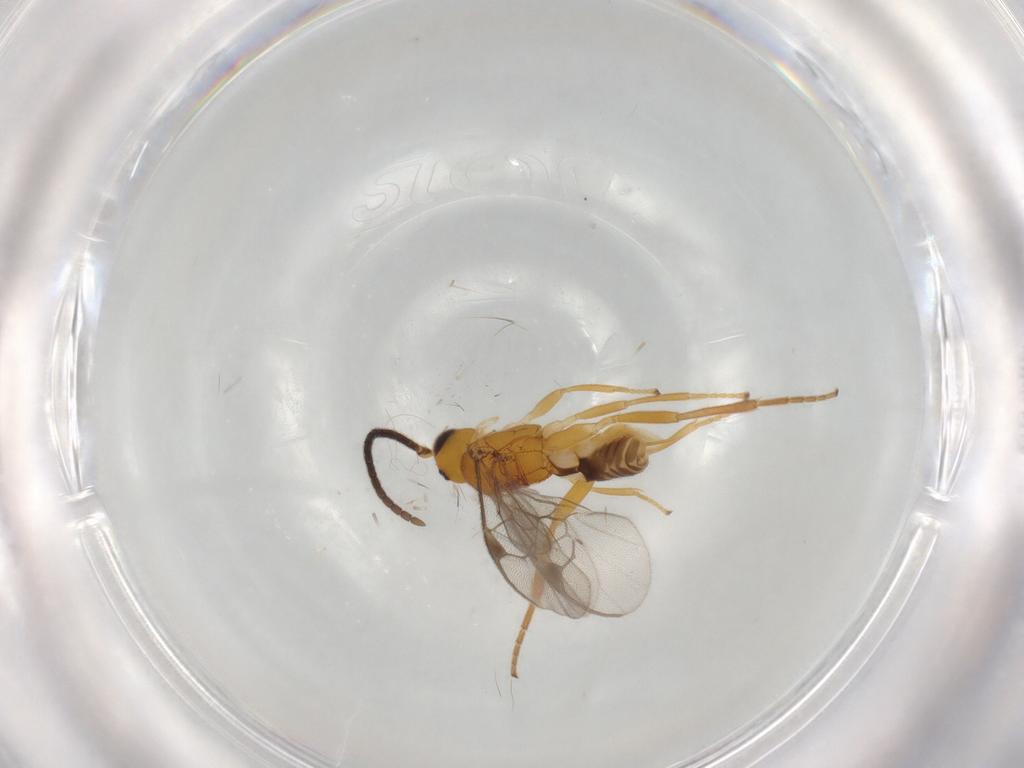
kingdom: Animalia
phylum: Arthropoda
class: Insecta
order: Hymenoptera
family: Braconidae
